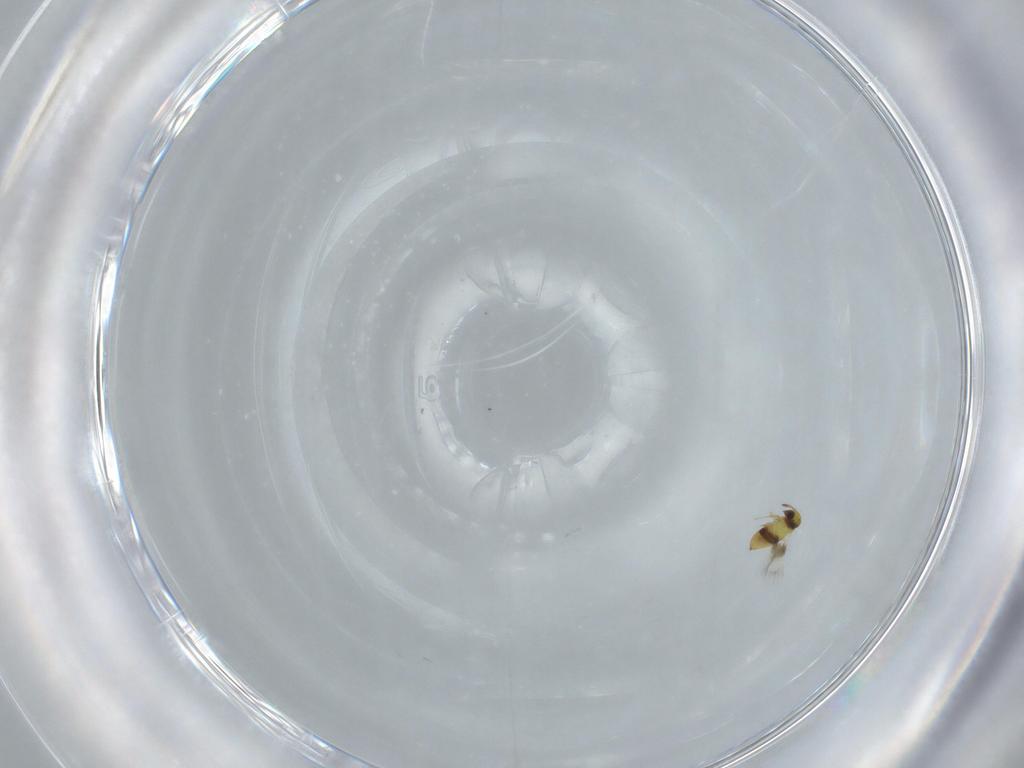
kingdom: Animalia
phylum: Arthropoda
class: Insecta
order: Hymenoptera
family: Signiphoridae
